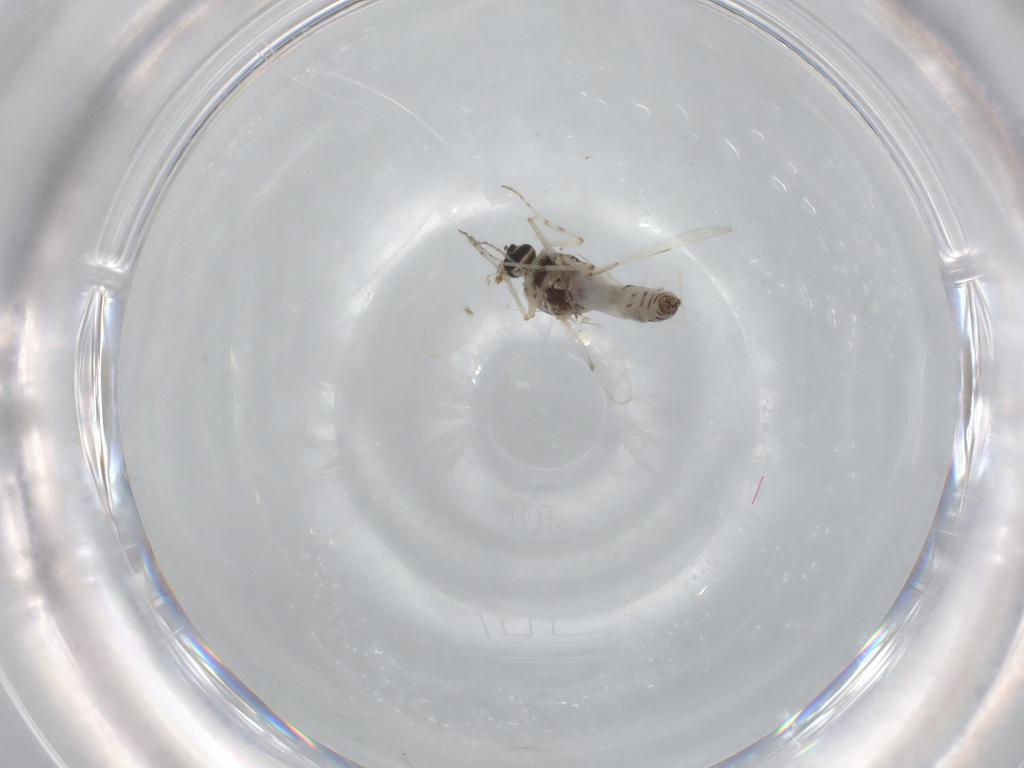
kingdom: Animalia
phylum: Arthropoda
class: Insecta
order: Diptera
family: Ceratopogonidae
